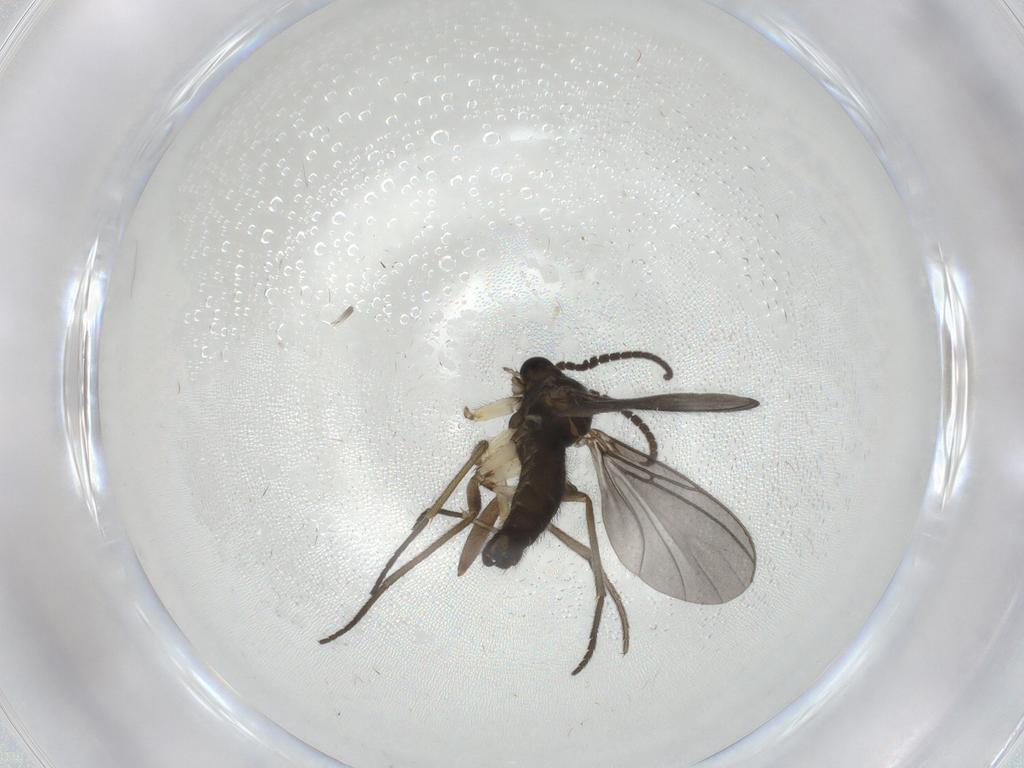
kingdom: Animalia
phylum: Arthropoda
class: Insecta
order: Diptera
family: Sciaridae
